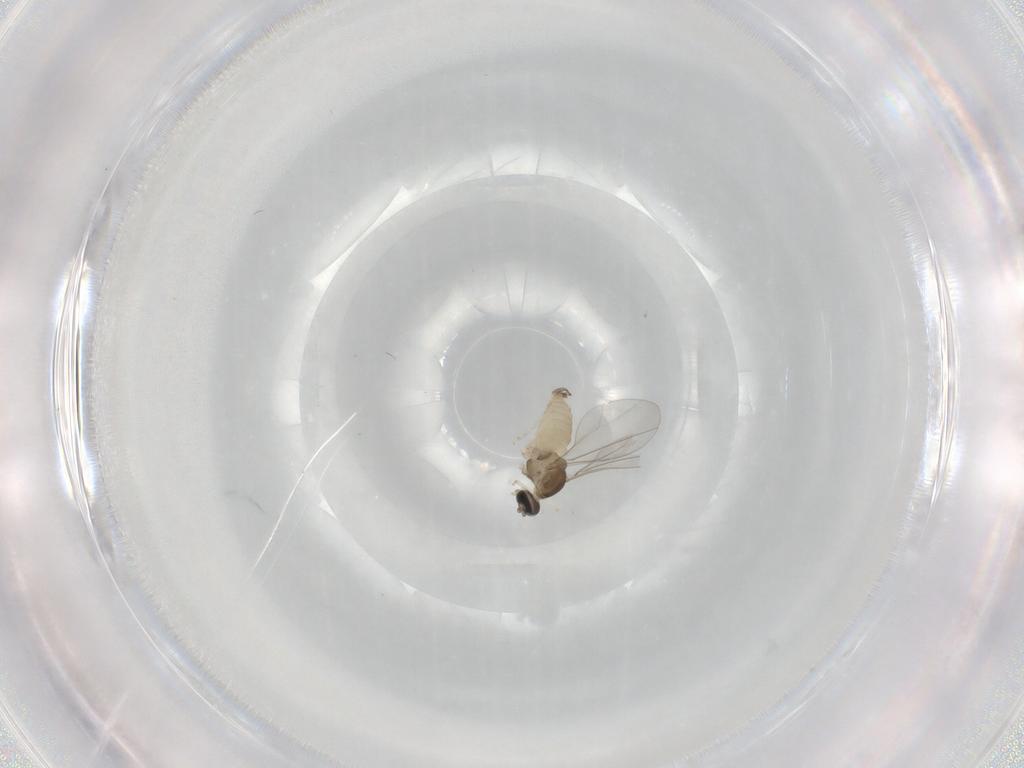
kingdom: Animalia
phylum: Arthropoda
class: Insecta
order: Diptera
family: Cecidomyiidae
